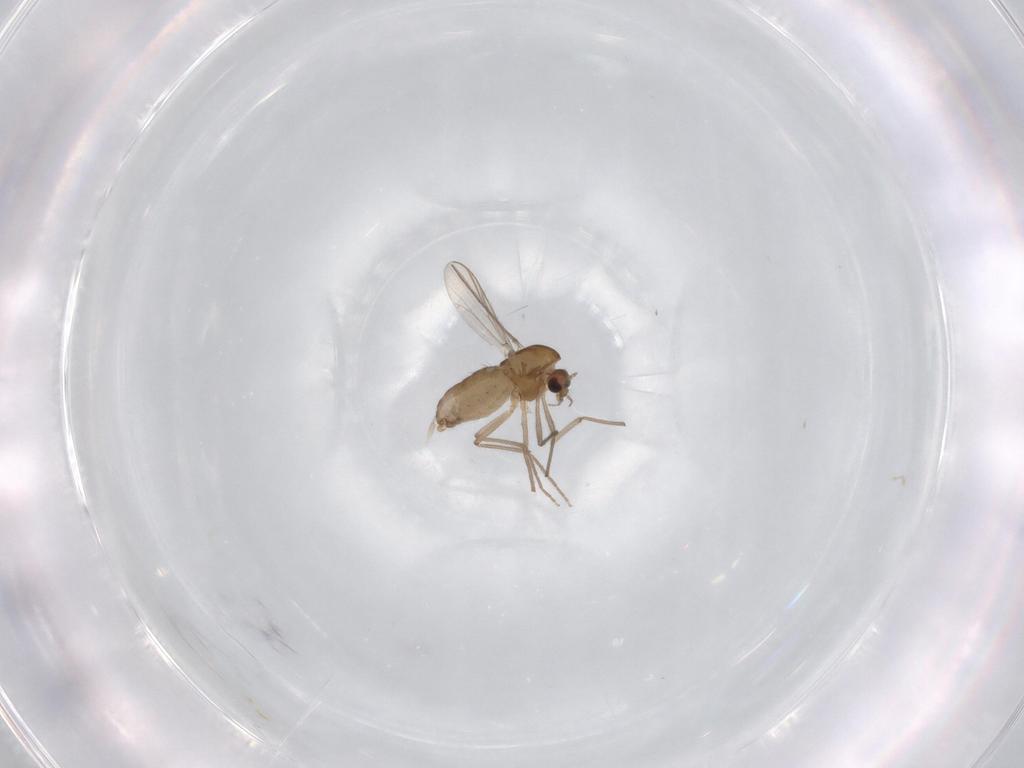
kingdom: Animalia
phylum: Arthropoda
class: Insecta
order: Diptera
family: Chironomidae
